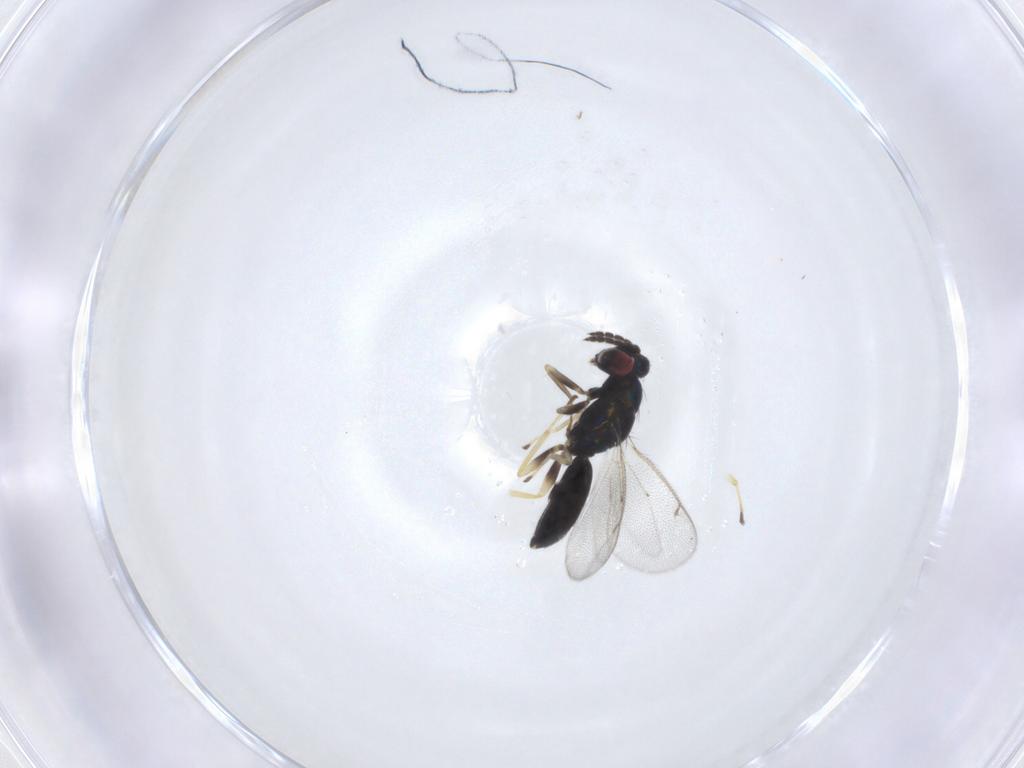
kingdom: Animalia
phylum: Arthropoda
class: Insecta
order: Hymenoptera
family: Eulophidae
